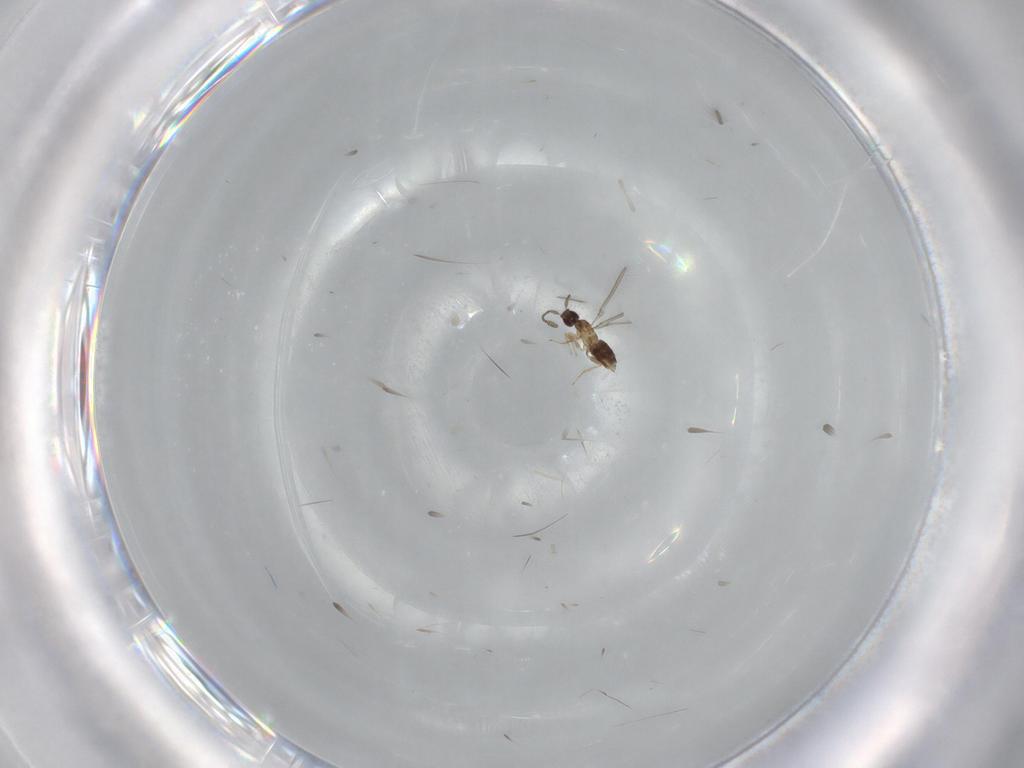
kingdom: Animalia
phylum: Arthropoda
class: Insecta
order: Hymenoptera
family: Mymaridae
